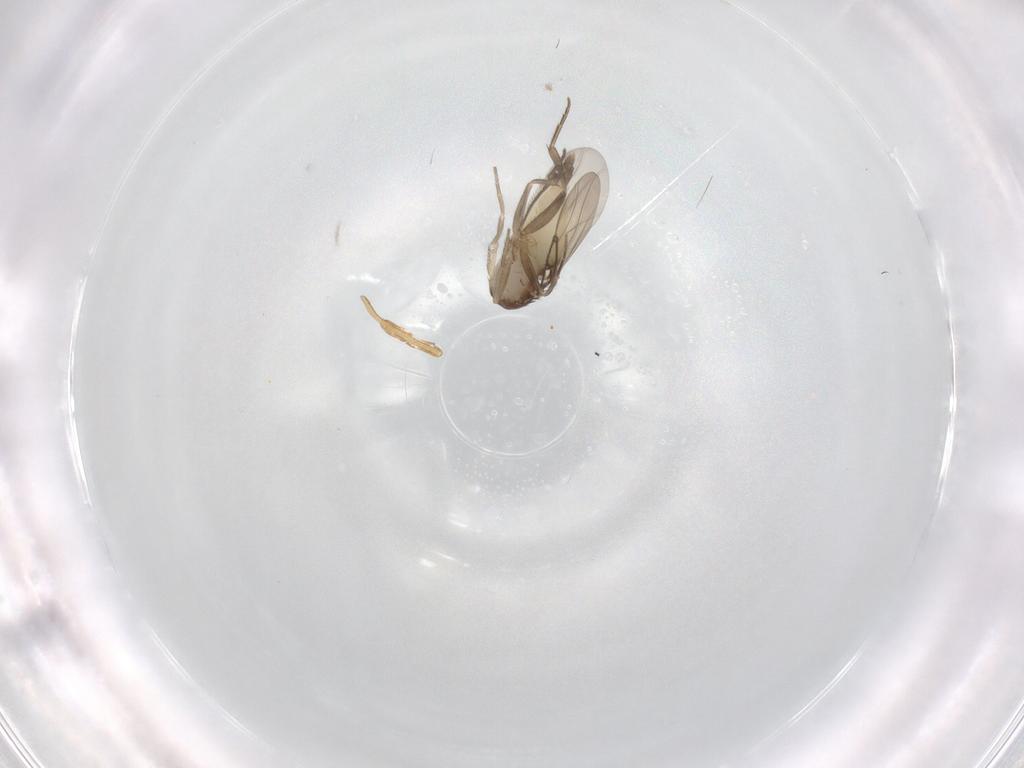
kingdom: Animalia
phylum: Arthropoda
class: Insecta
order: Diptera
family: Phoridae
